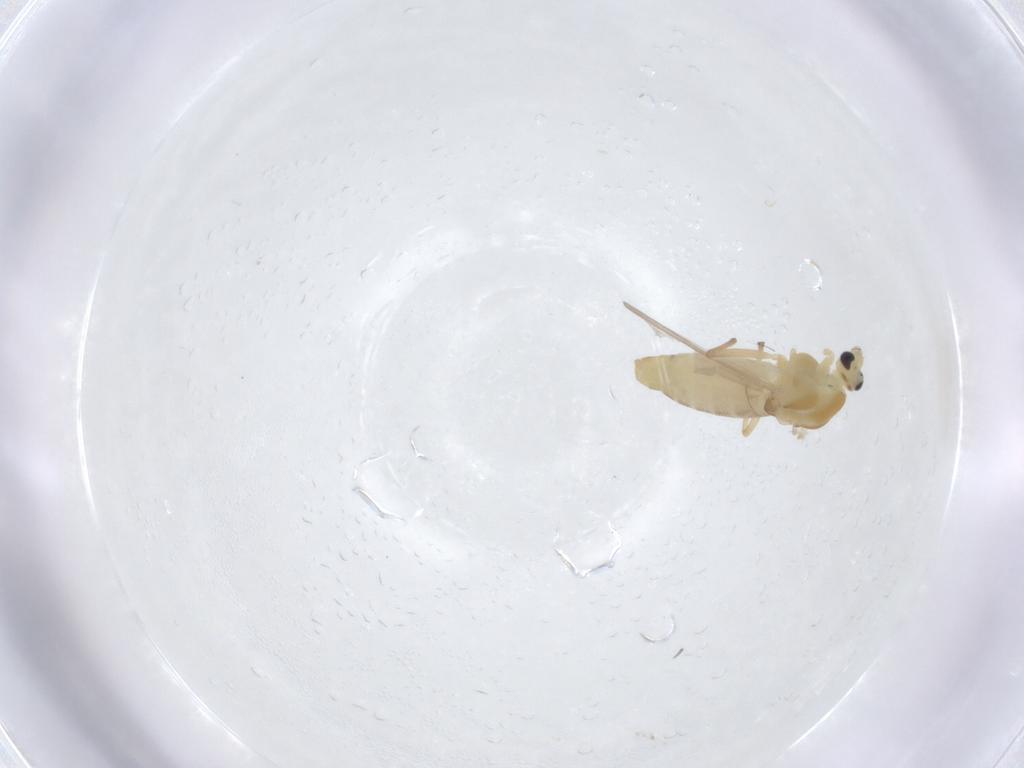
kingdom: Animalia
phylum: Arthropoda
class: Insecta
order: Diptera
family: Chironomidae
